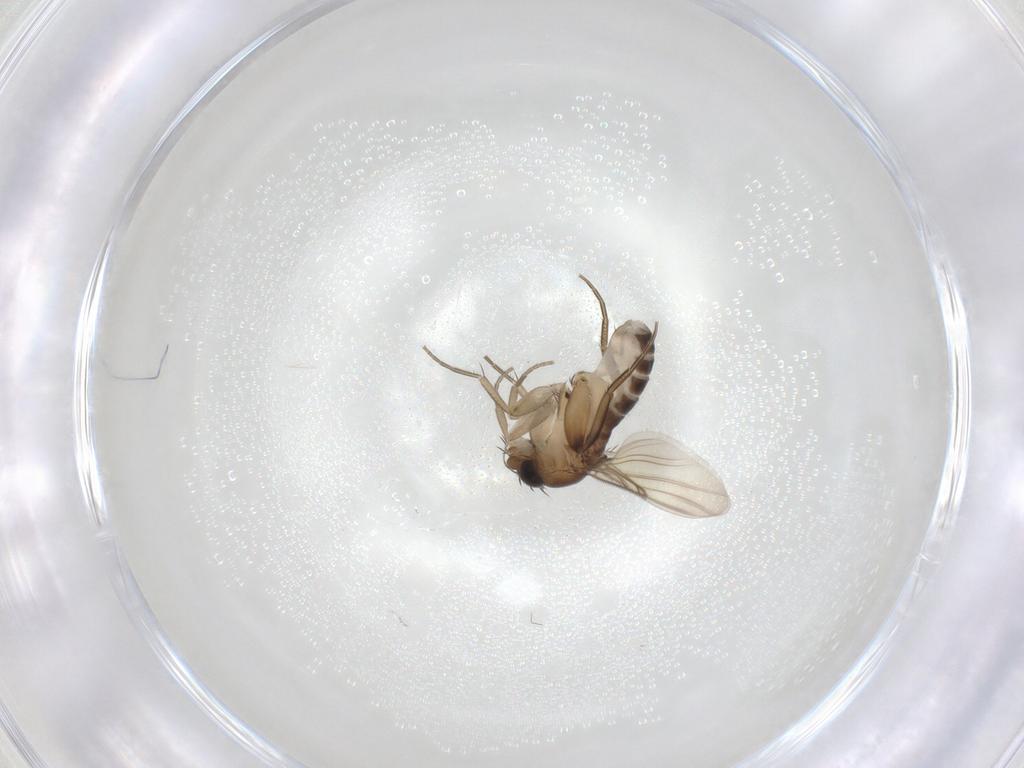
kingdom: Animalia
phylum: Arthropoda
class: Insecta
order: Diptera
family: Phoridae
